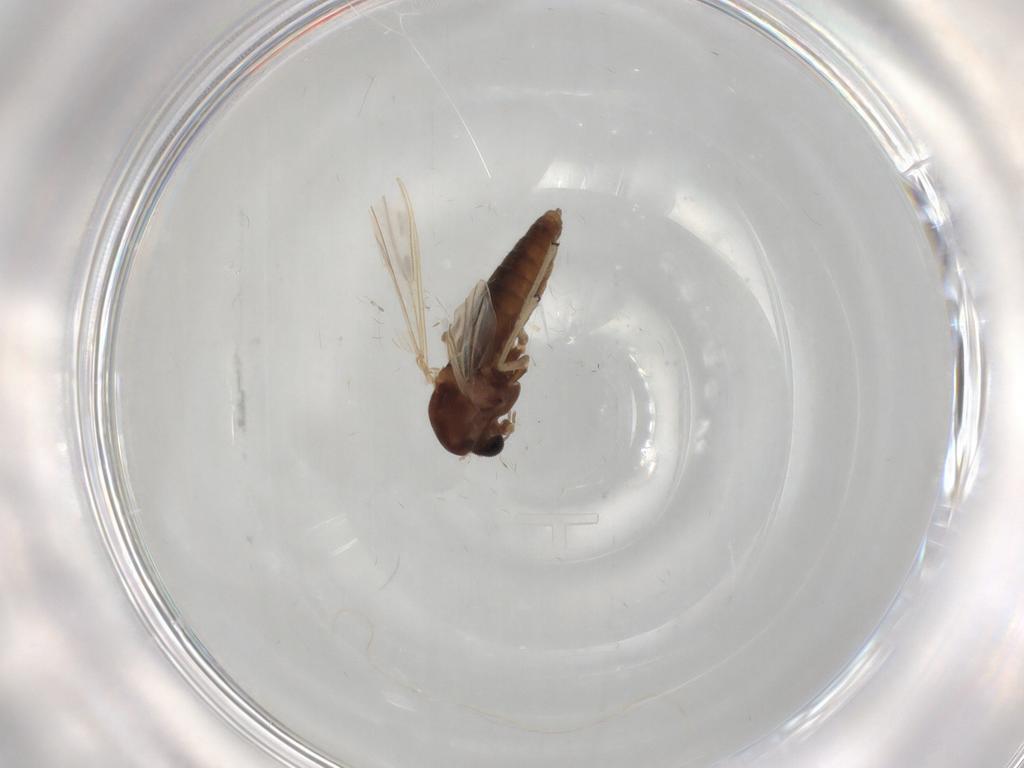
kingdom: Animalia
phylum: Arthropoda
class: Insecta
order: Diptera
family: Chironomidae
